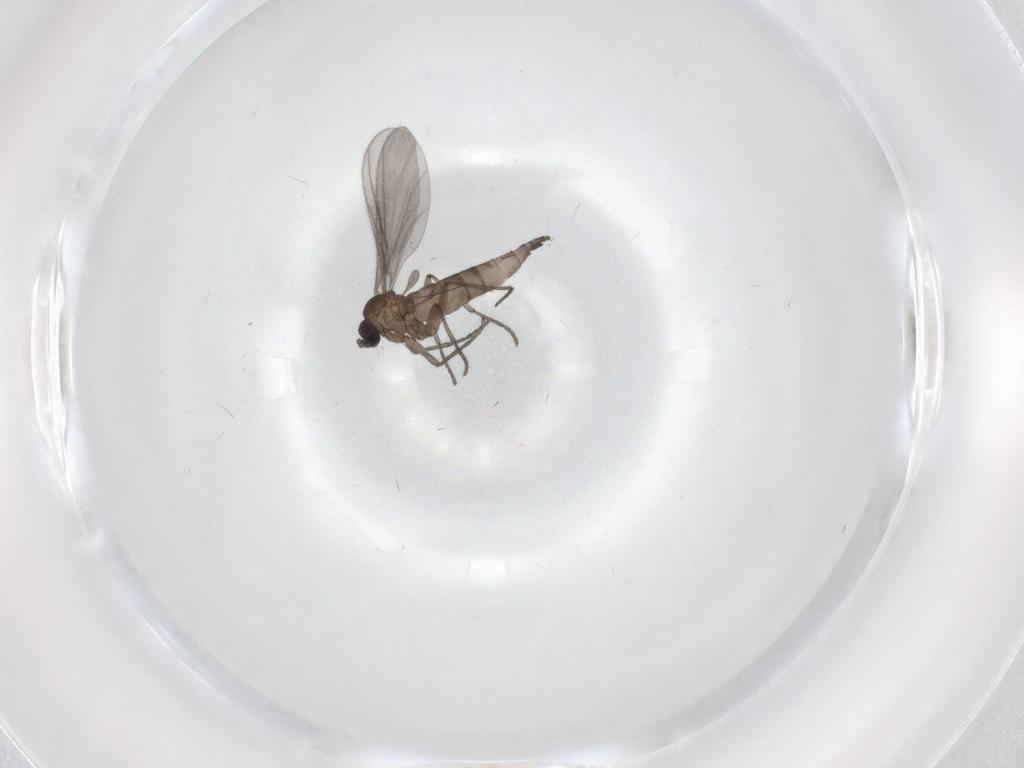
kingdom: Animalia
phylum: Arthropoda
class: Insecta
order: Diptera
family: Sciaridae
